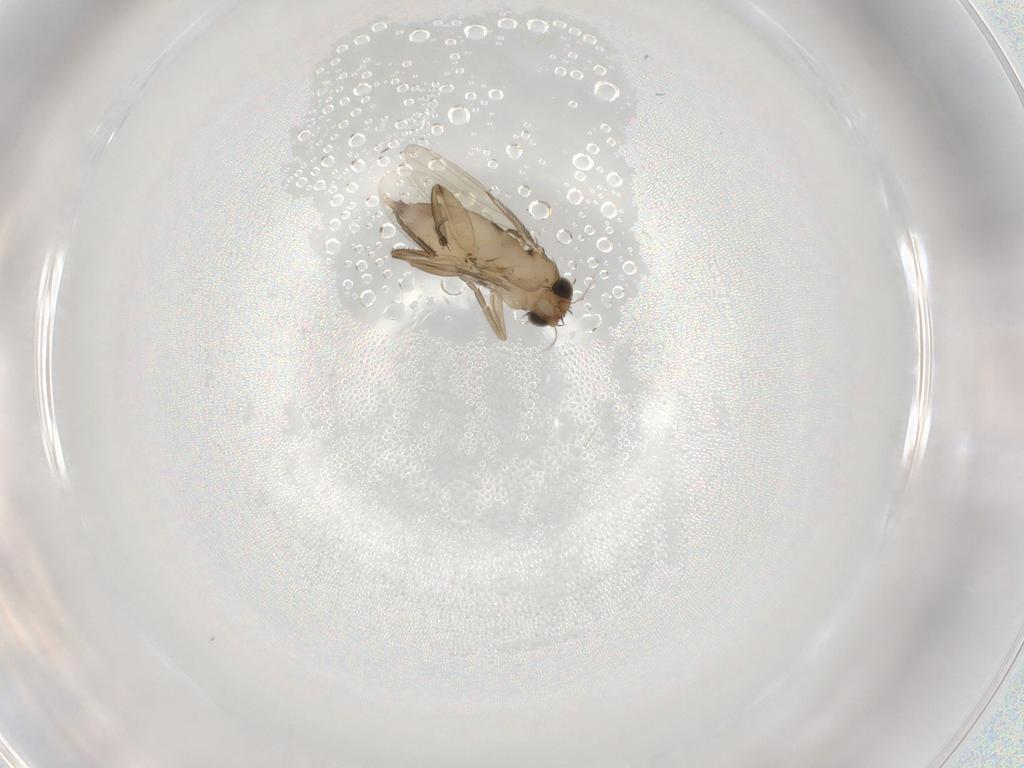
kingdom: Animalia
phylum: Arthropoda
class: Insecta
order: Diptera
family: Phoridae
